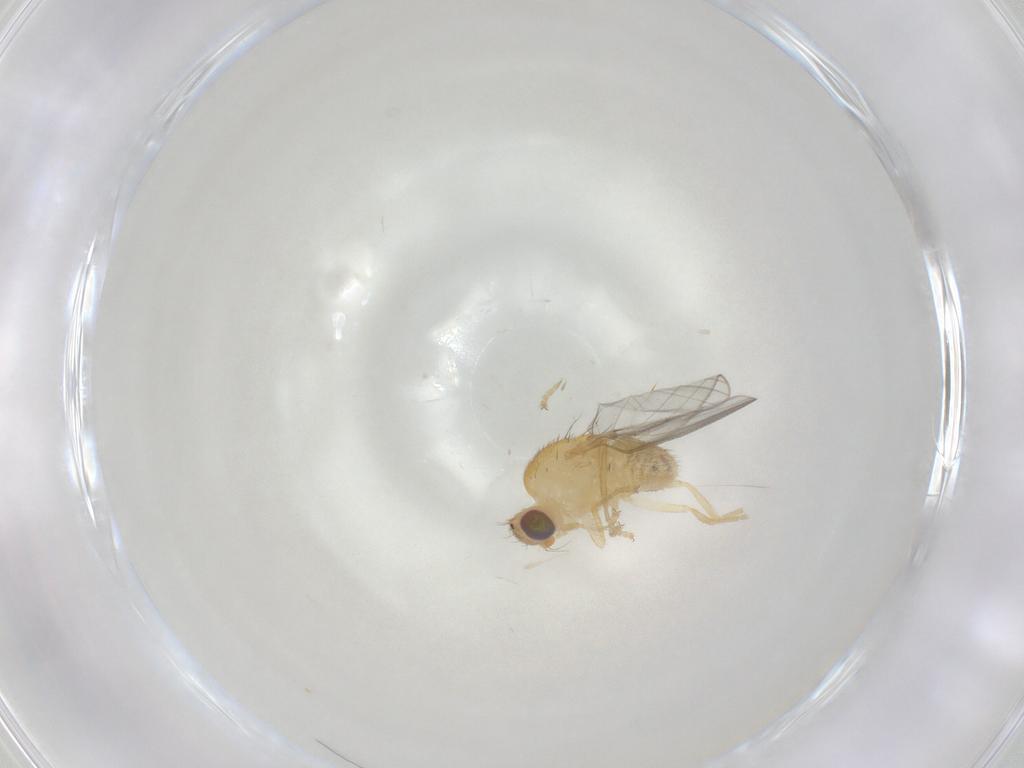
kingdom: Animalia
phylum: Arthropoda
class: Insecta
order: Diptera
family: Chyromyidae
